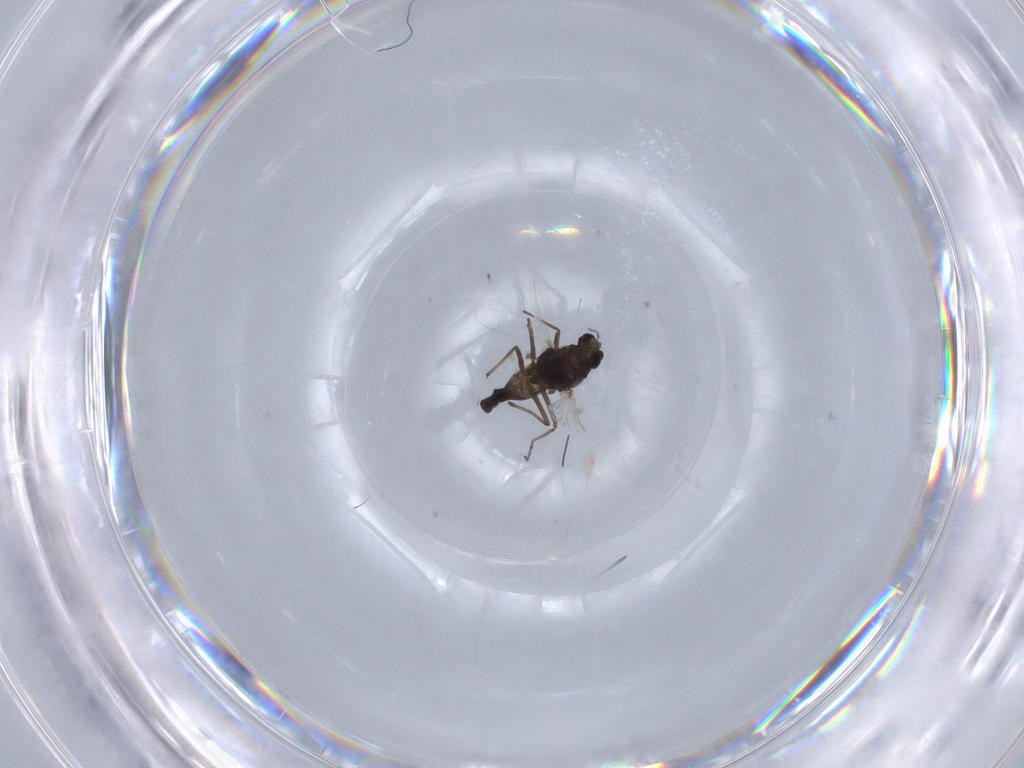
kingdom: Animalia
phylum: Arthropoda
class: Insecta
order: Diptera
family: Chironomidae
